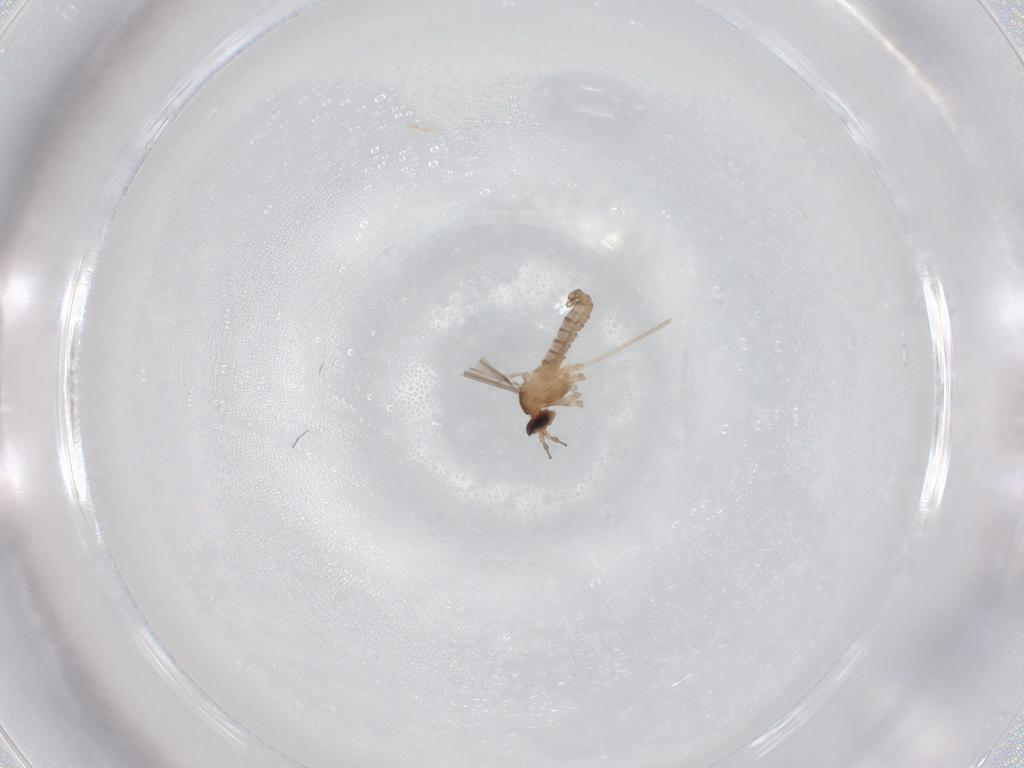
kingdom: Animalia
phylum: Arthropoda
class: Insecta
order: Diptera
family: Cecidomyiidae
